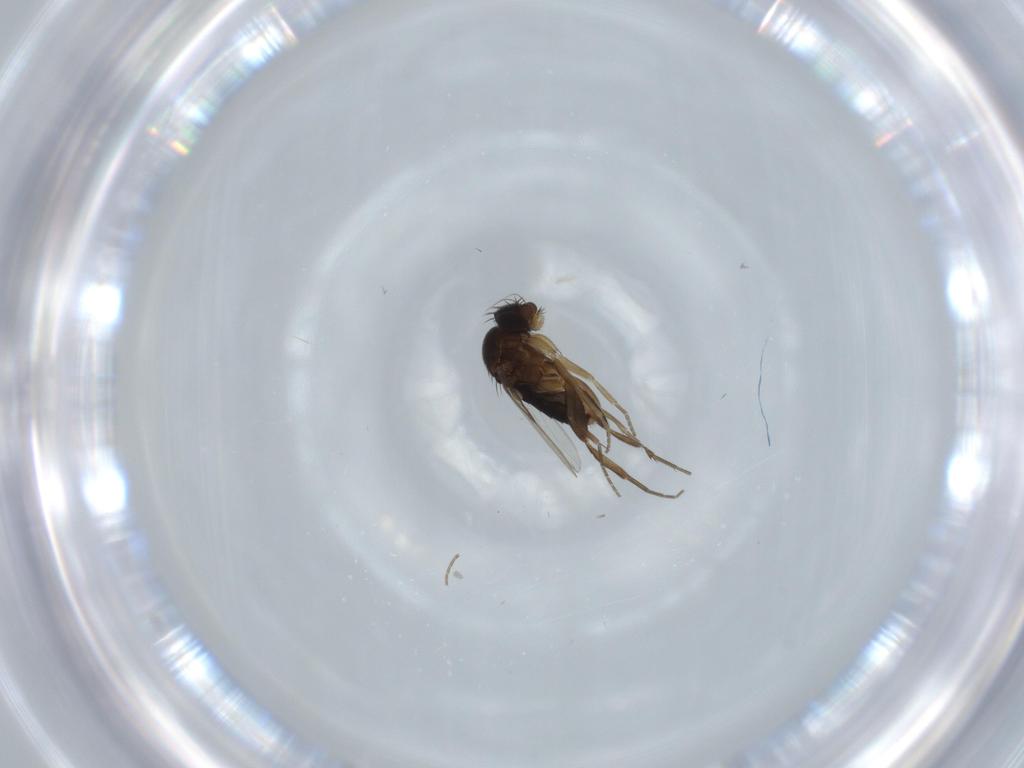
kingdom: Animalia
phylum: Arthropoda
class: Insecta
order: Diptera
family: Phoridae
